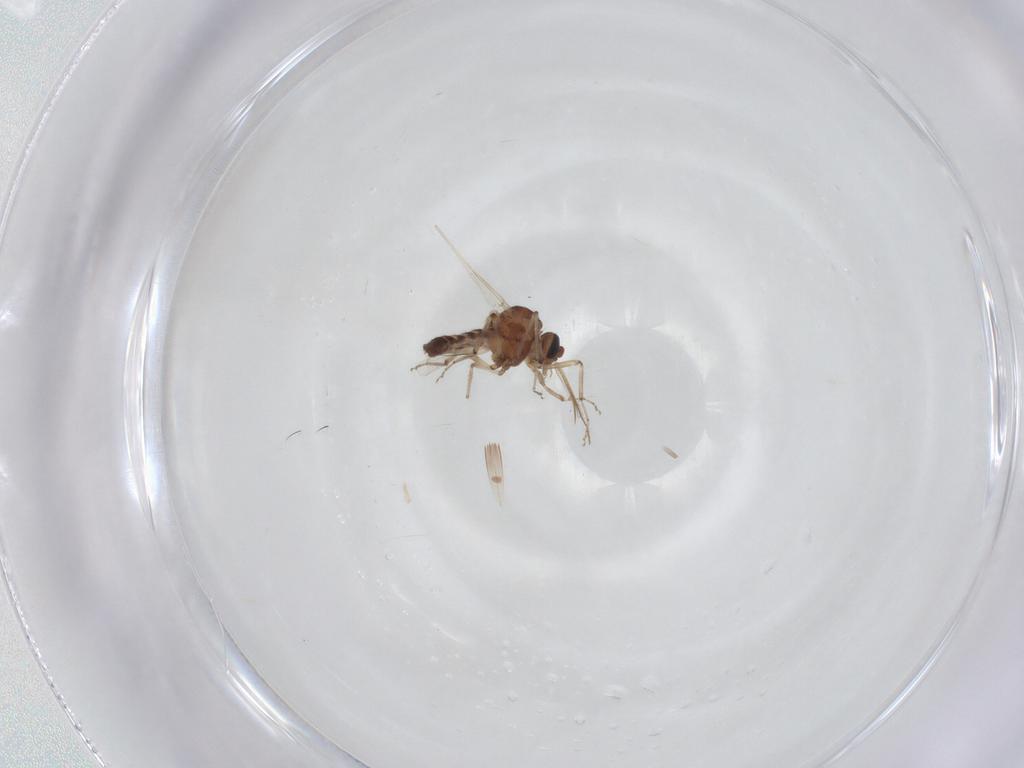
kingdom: Animalia
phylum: Arthropoda
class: Insecta
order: Diptera
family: Ceratopogonidae
